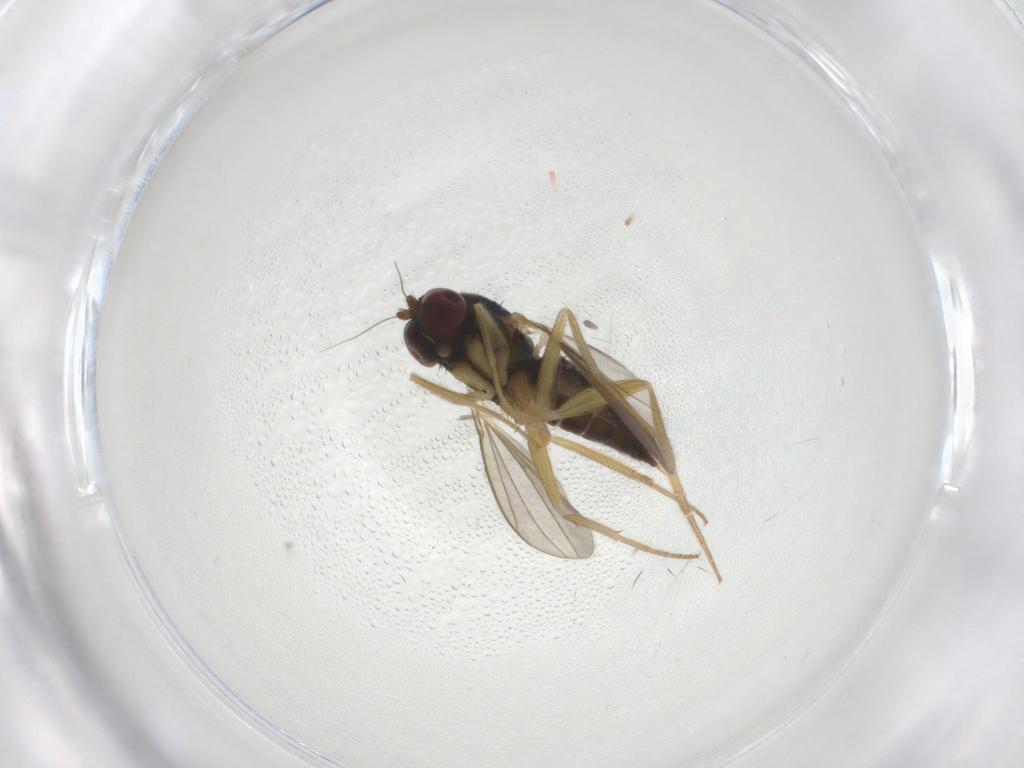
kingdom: Animalia
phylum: Arthropoda
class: Insecta
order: Diptera
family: Dolichopodidae
